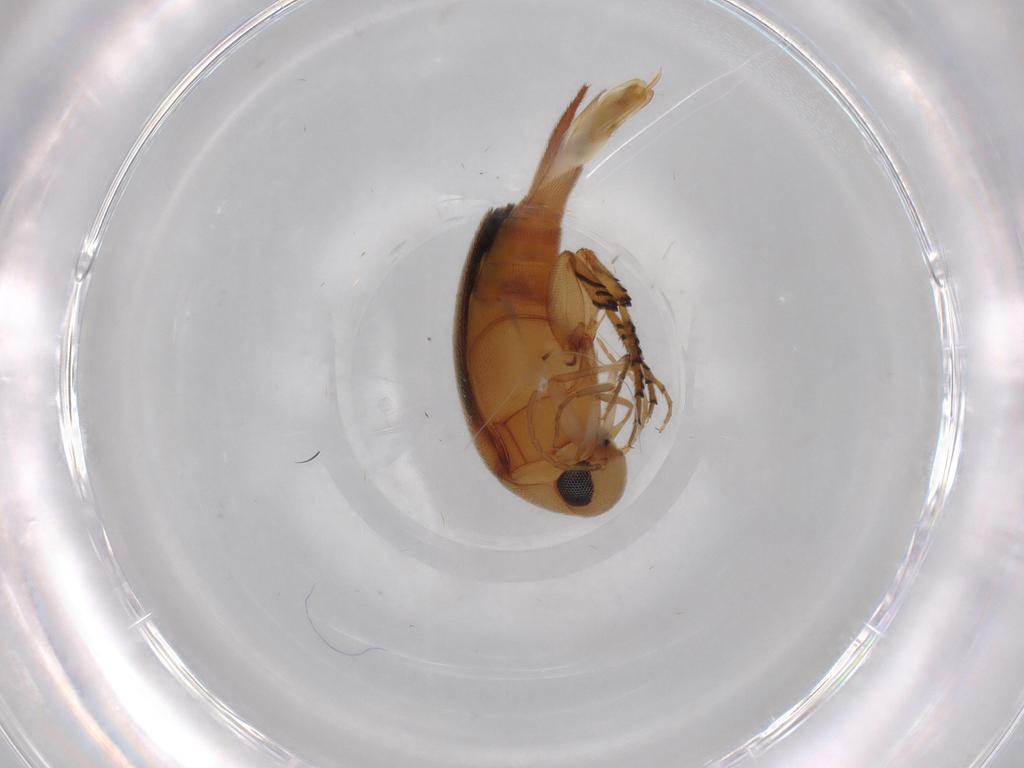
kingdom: Animalia
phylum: Arthropoda
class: Insecta
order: Coleoptera
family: Mordellidae
